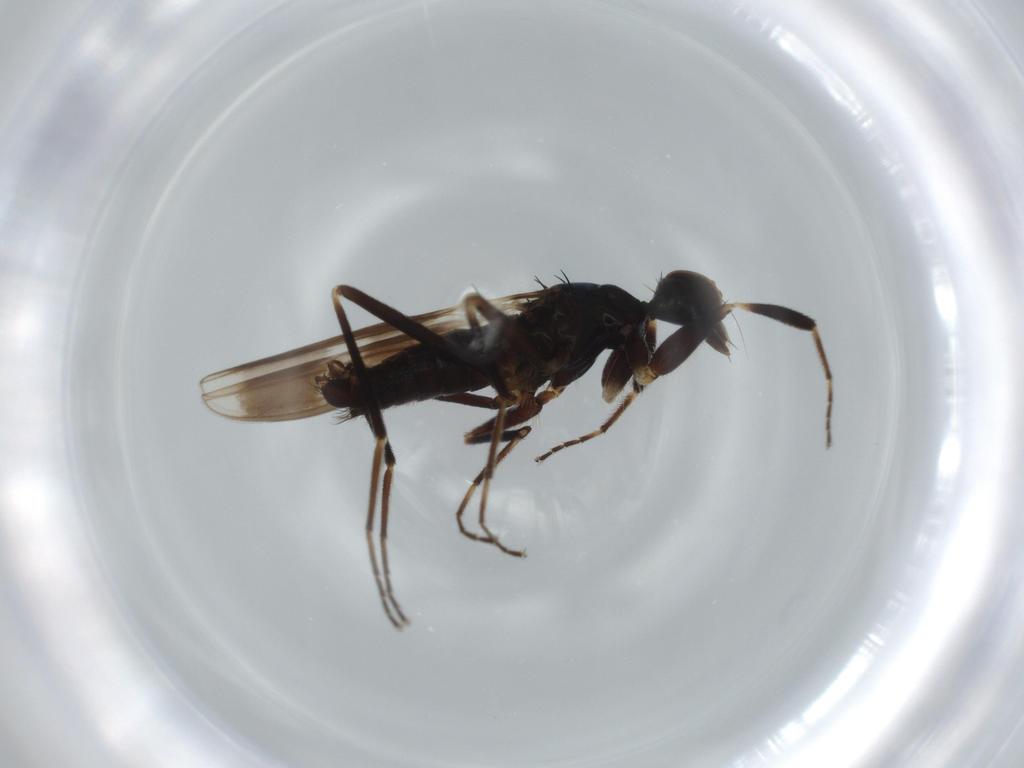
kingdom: Animalia
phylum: Arthropoda
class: Insecta
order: Diptera
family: Hybotidae
